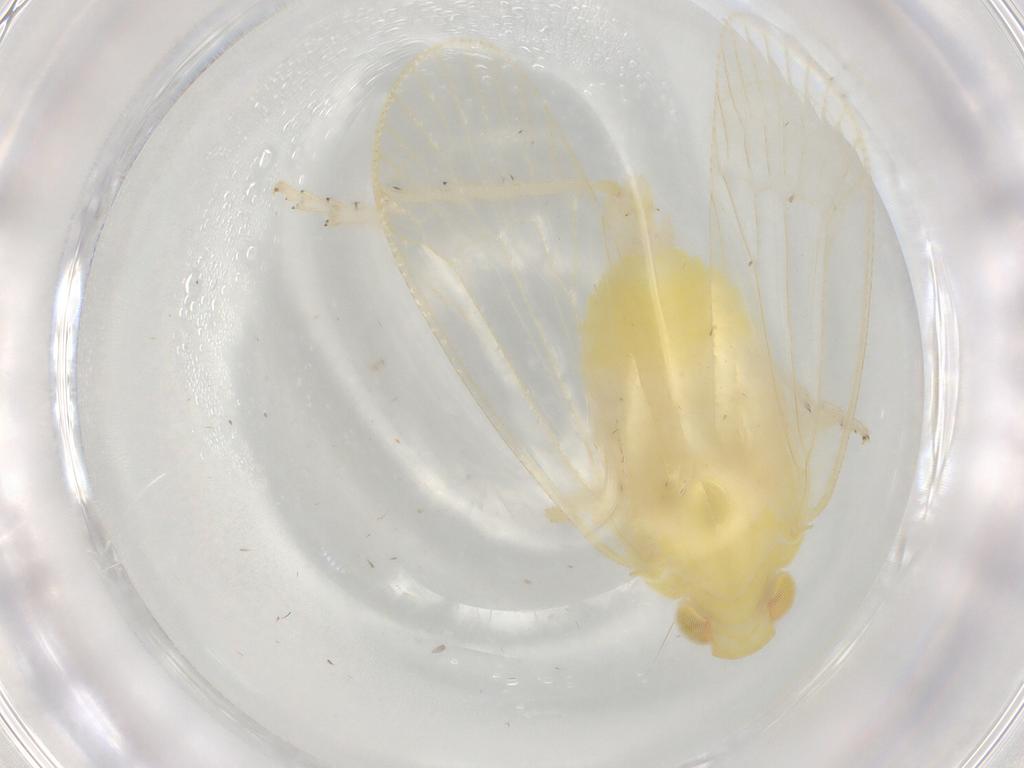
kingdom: Animalia
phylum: Arthropoda
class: Insecta
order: Hemiptera
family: Tropiduchidae
